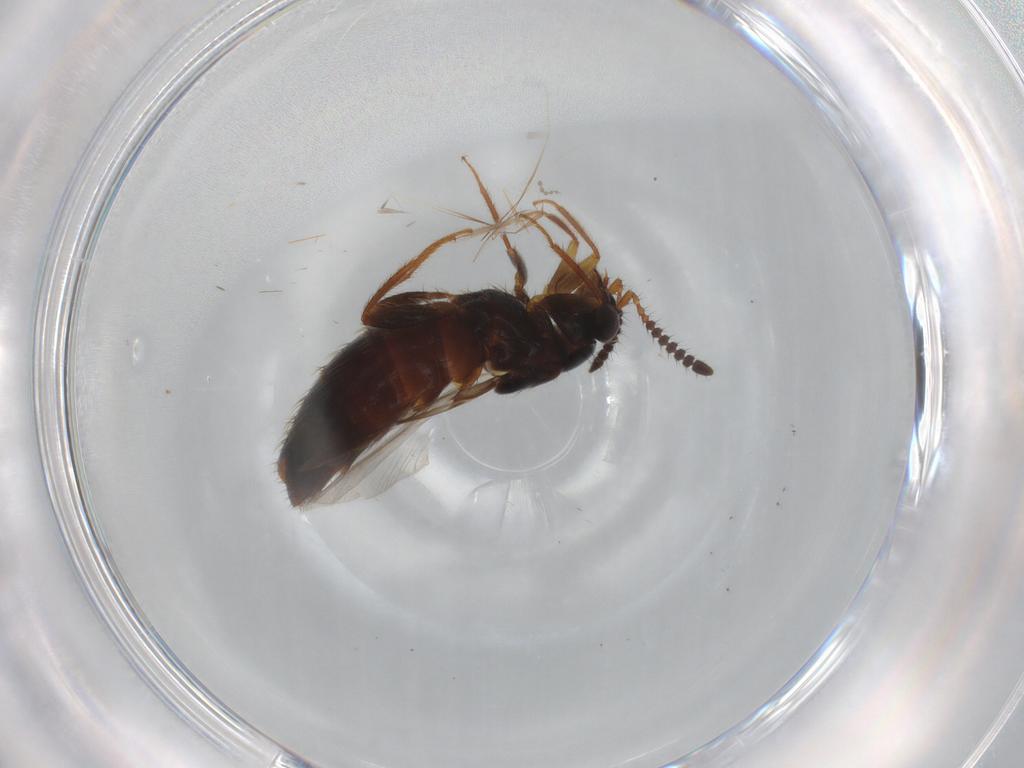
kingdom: Animalia
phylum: Arthropoda
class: Insecta
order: Coleoptera
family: Staphylinidae
